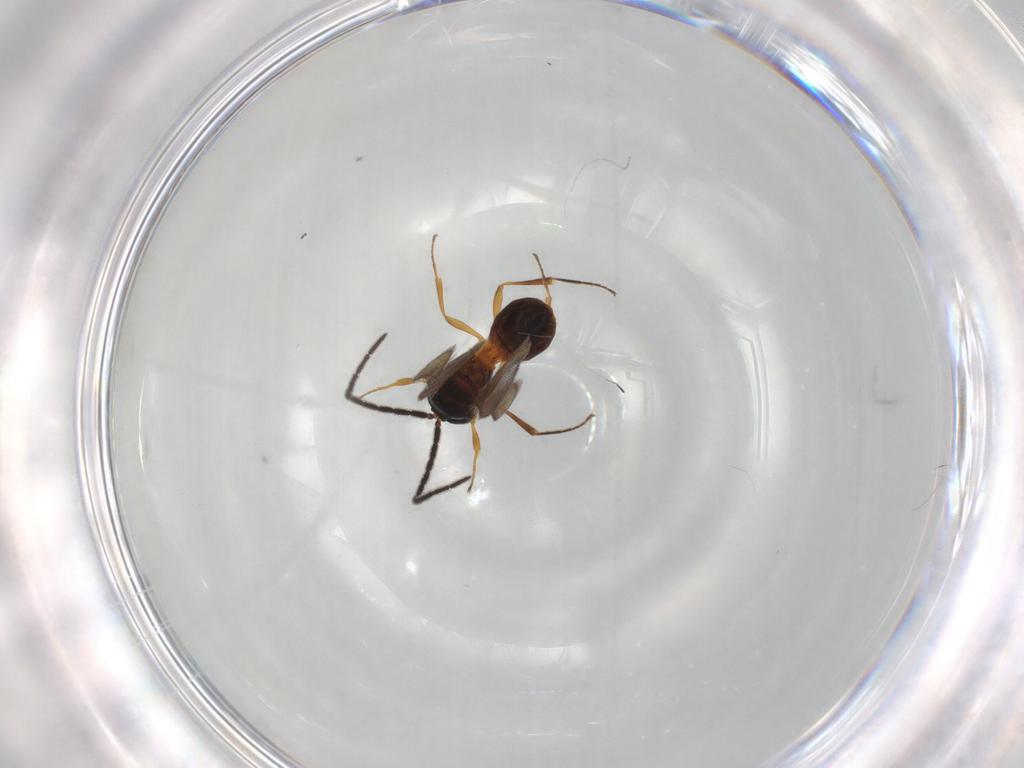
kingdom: Animalia
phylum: Arthropoda
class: Insecta
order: Hymenoptera
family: Scelionidae
